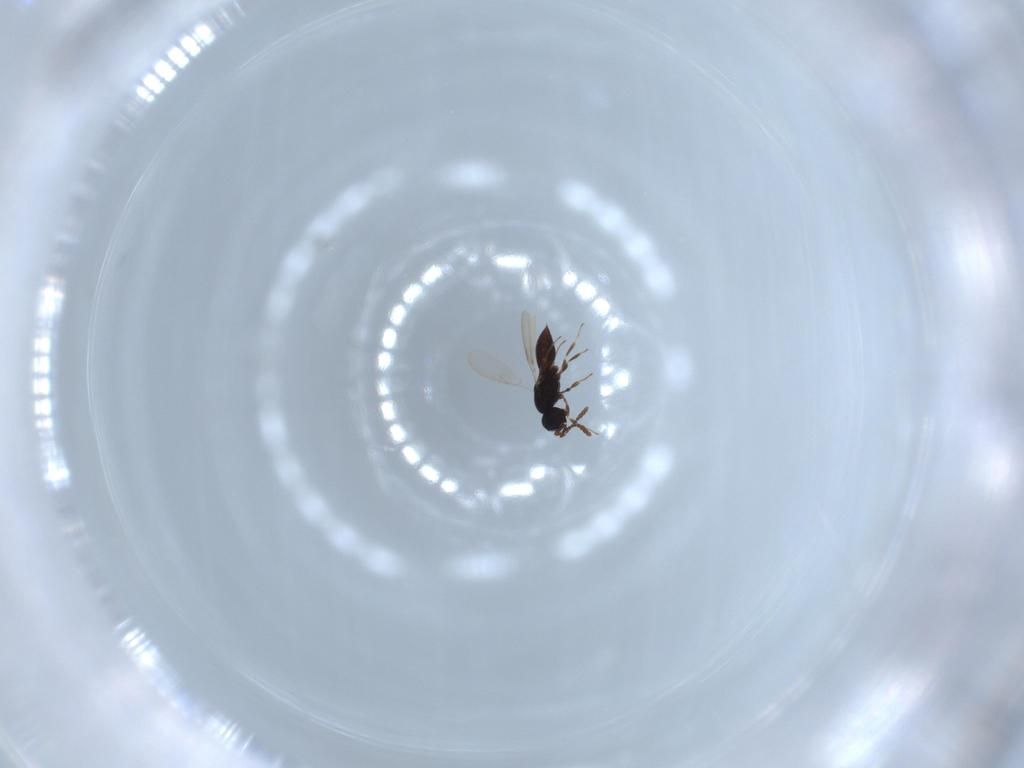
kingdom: Animalia
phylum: Arthropoda
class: Insecta
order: Hymenoptera
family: Scelionidae
